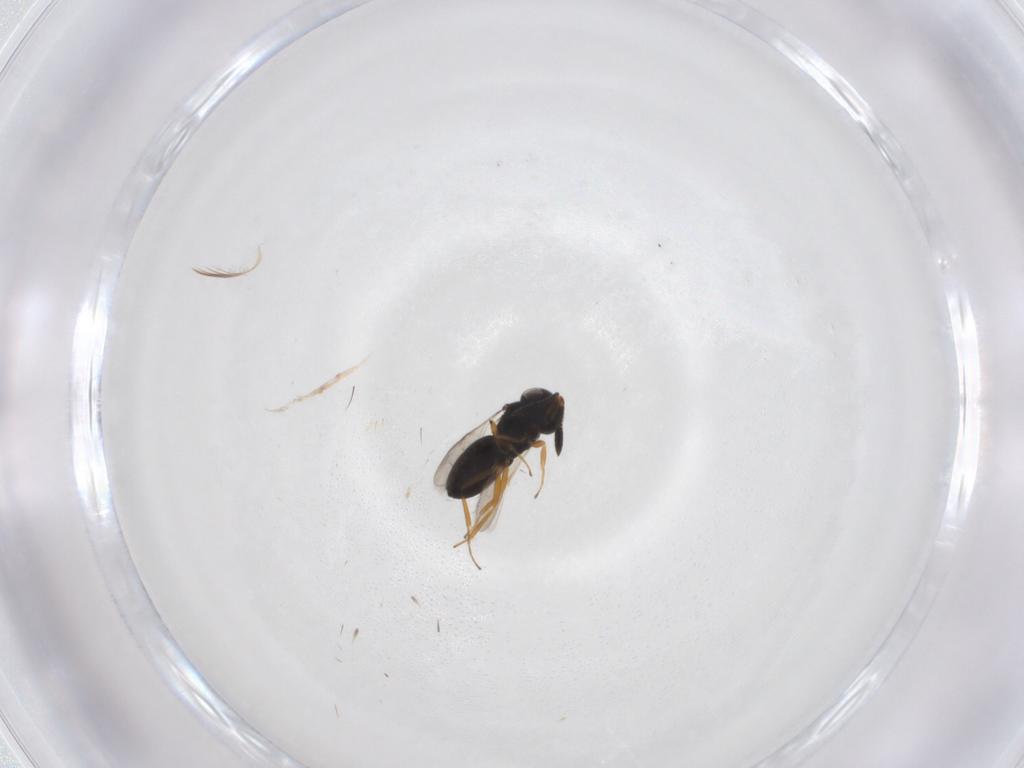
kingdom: Animalia
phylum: Arthropoda
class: Insecta
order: Hymenoptera
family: Scelionidae
